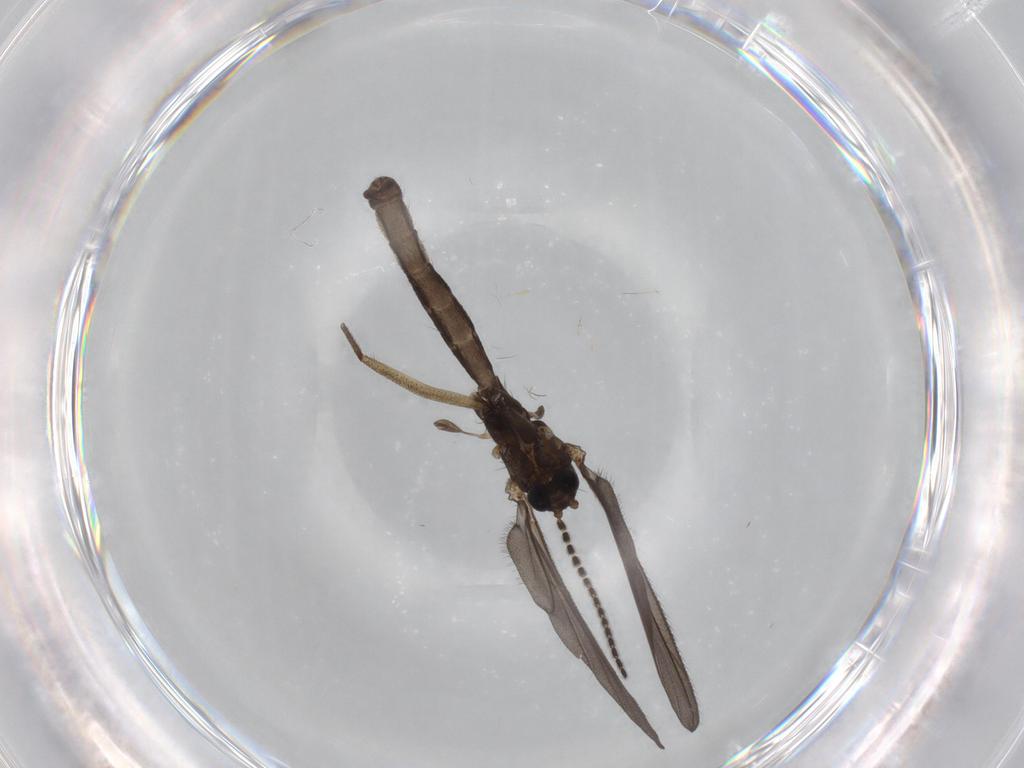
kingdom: Animalia
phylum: Arthropoda
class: Insecta
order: Diptera
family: Ditomyiidae
